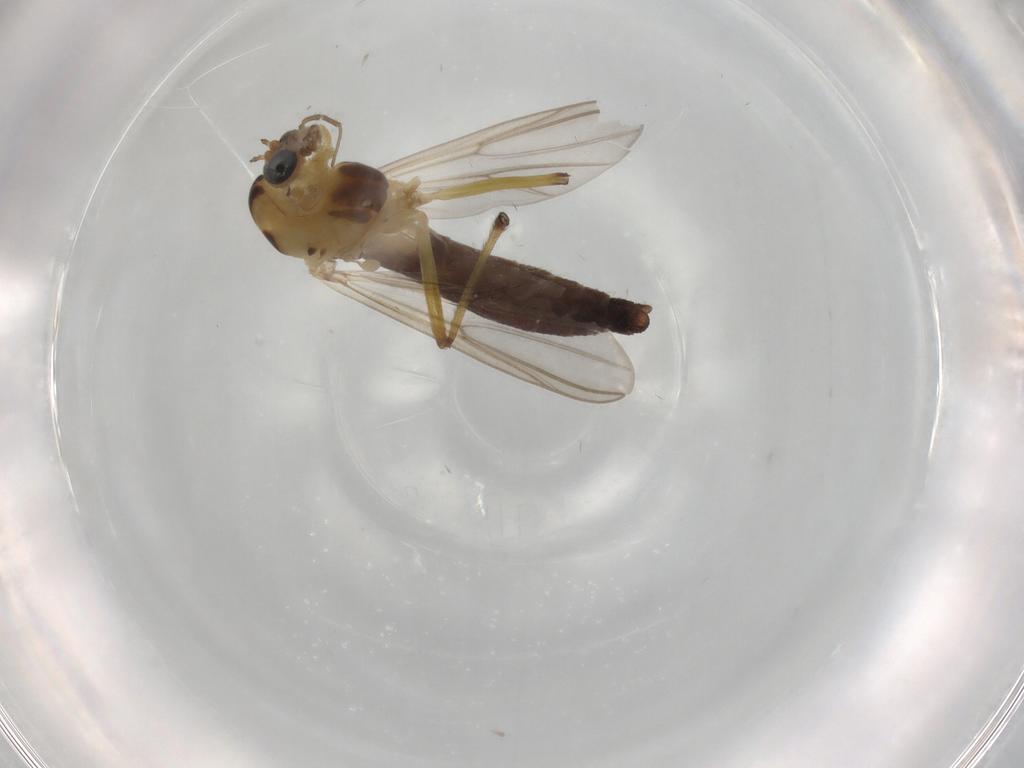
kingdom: Animalia
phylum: Arthropoda
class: Insecta
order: Diptera
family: Chironomidae
